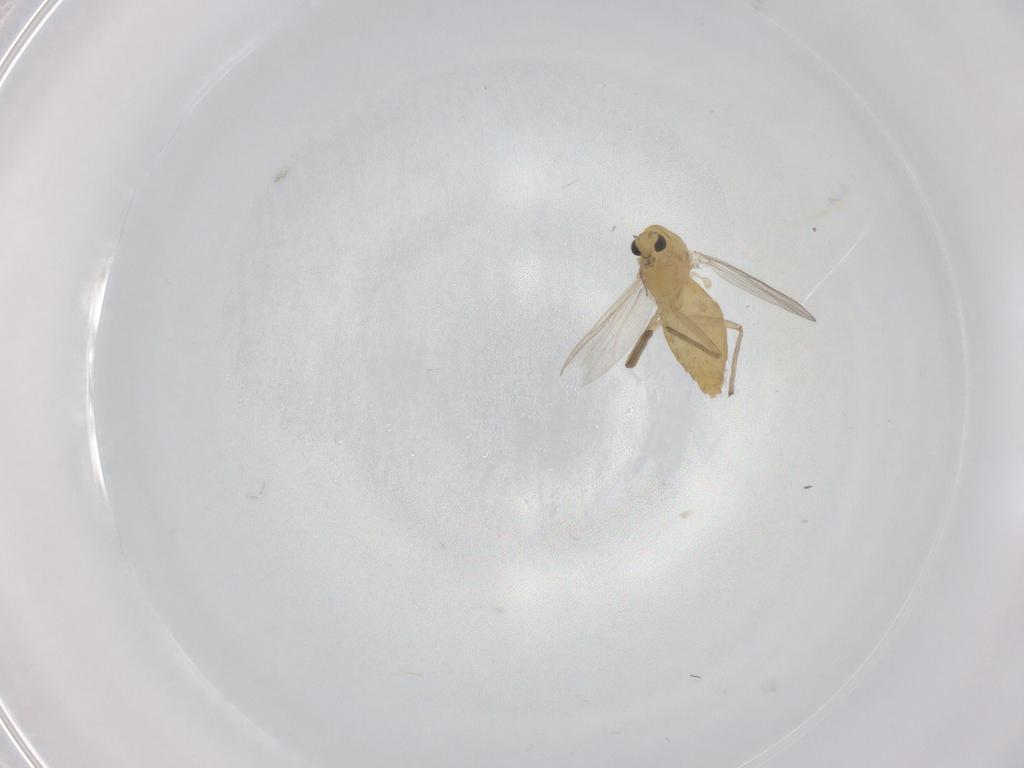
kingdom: Animalia
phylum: Arthropoda
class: Insecta
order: Diptera
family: Chironomidae
